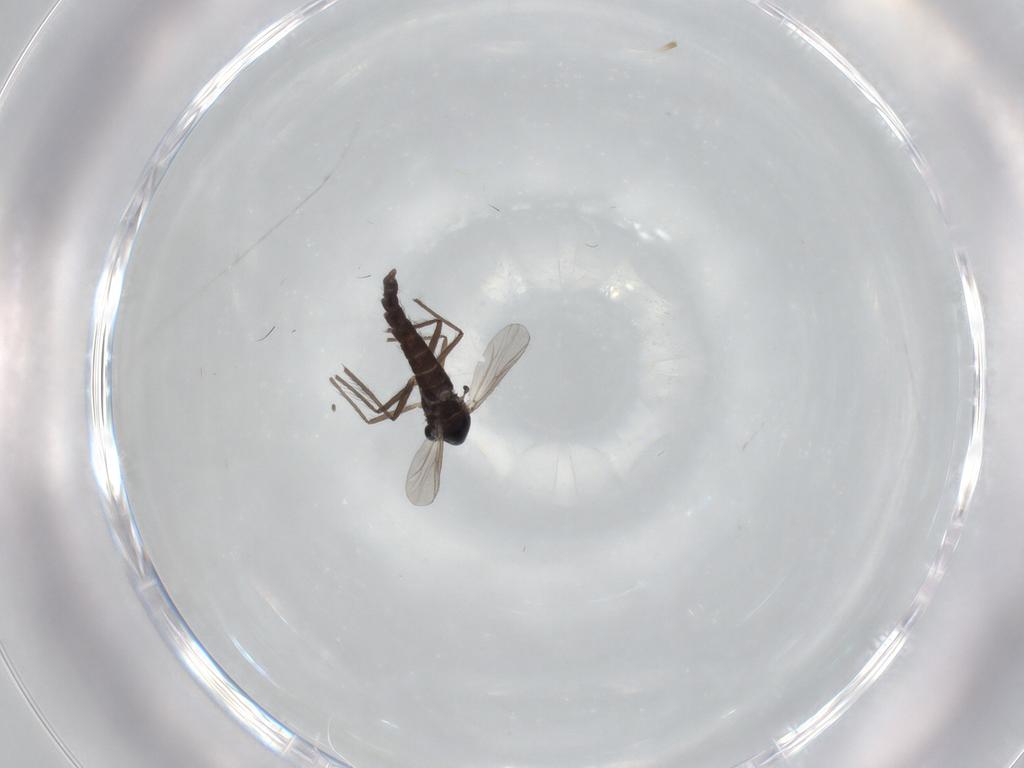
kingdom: Animalia
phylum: Arthropoda
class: Insecta
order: Diptera
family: Chironomidae
